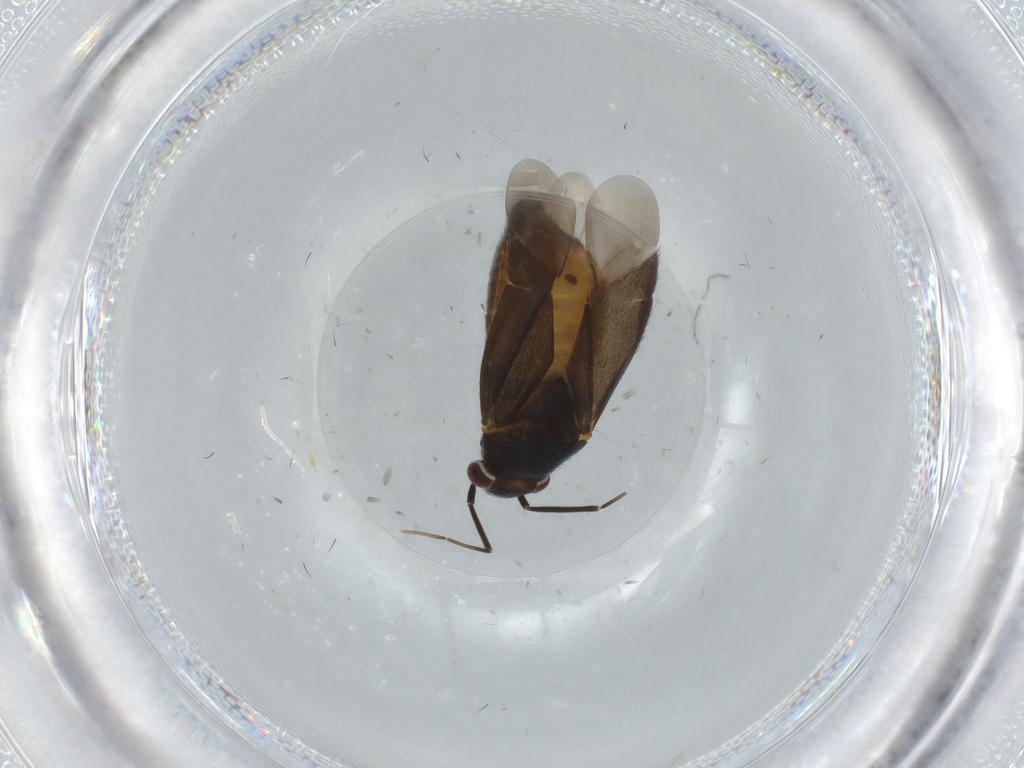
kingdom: Animalia
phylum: Arthropoda
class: Insecta
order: Hemiptera
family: Miridae
